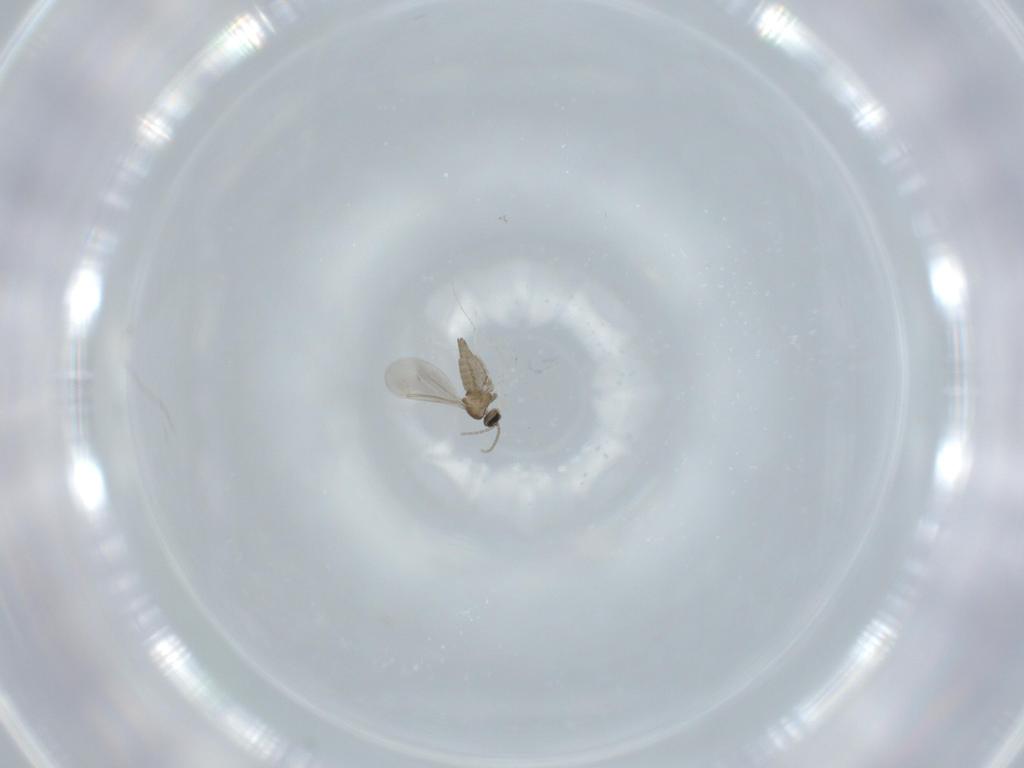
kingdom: Animalia
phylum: Arthropoda
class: Insecta
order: Diptera
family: Cecidomyiidae
